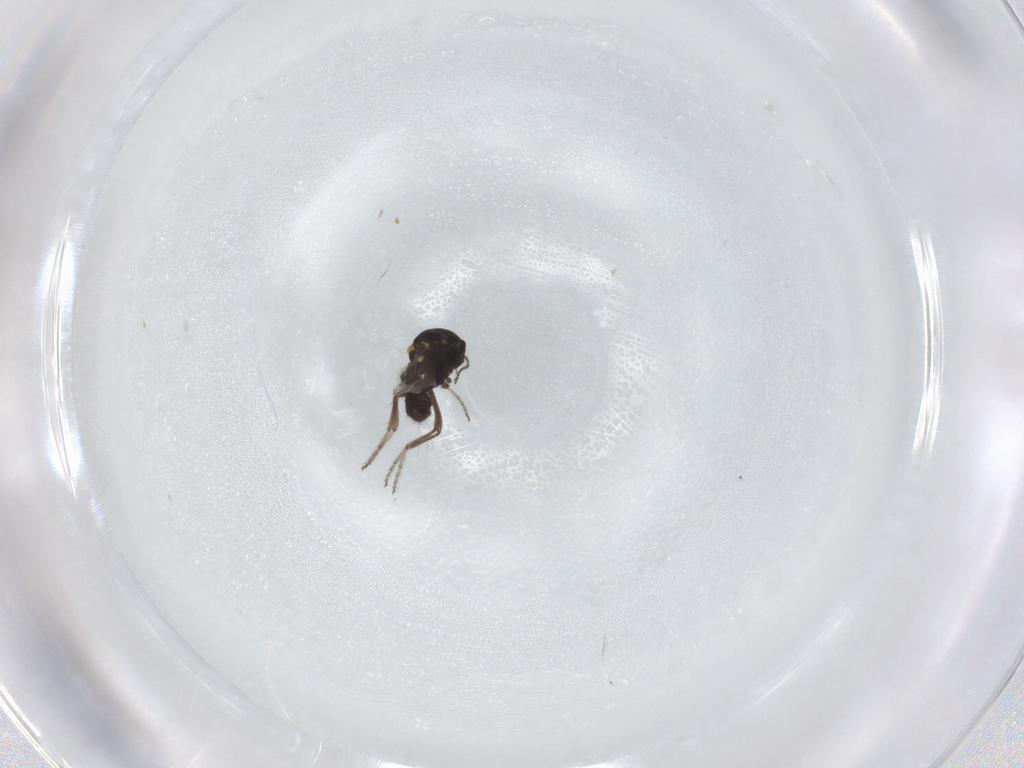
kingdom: Animalia
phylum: Arthropoda
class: Insecta
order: Diptera
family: Ceratopogonidae
